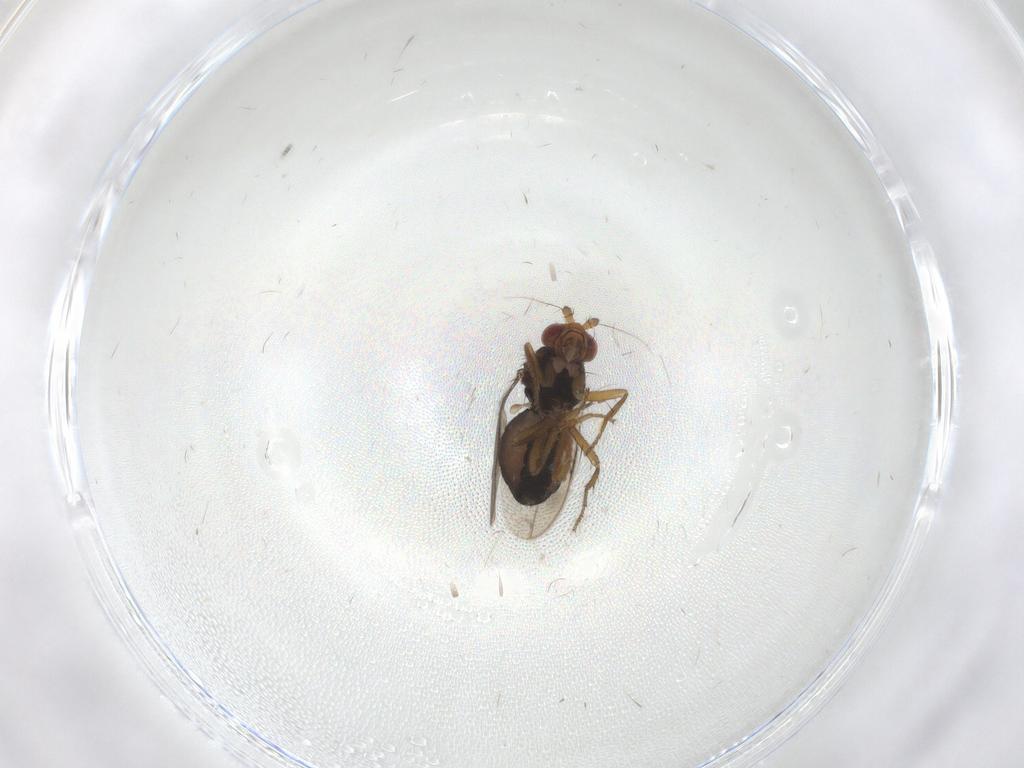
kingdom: Animalia
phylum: Arthropoda
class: Insecta
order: Diptera
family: Sphaeroceridae
